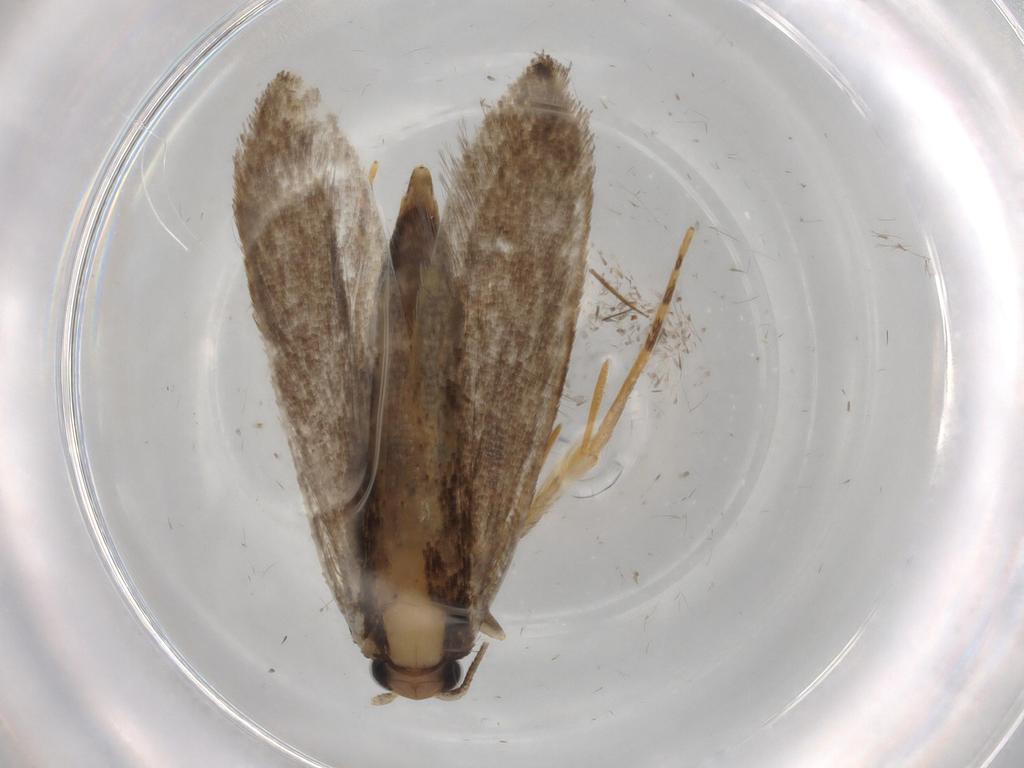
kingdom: Animalia
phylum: Arthropoda
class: Insecta
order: Lepidoptera
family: Tineidae
